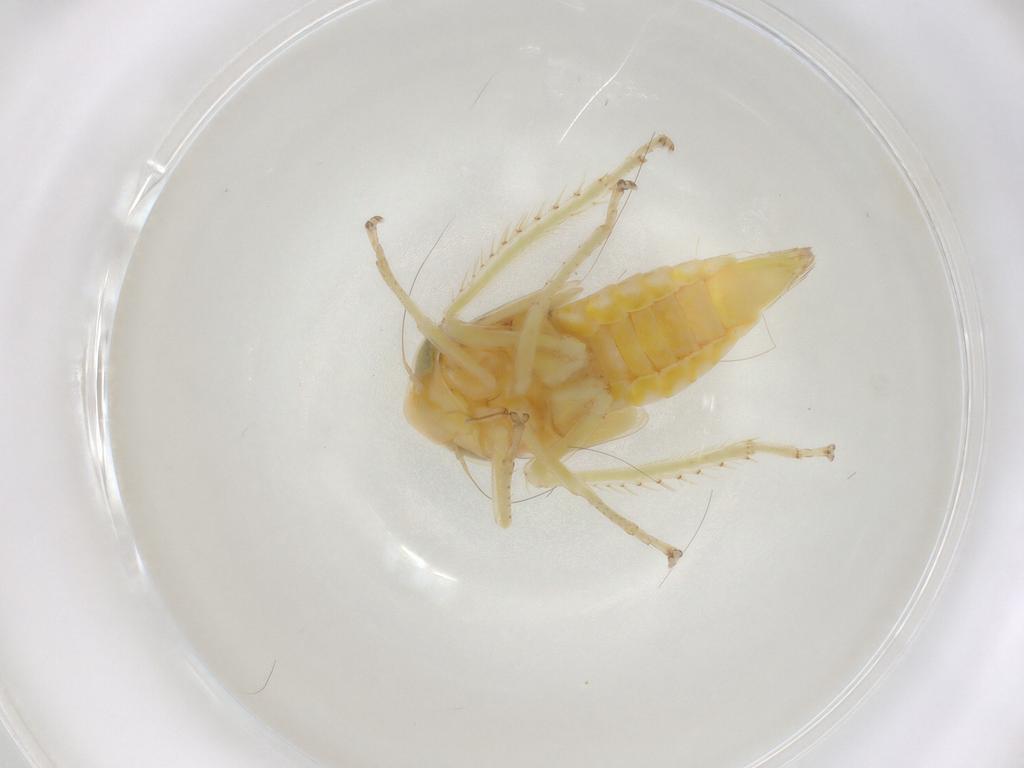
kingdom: Animalia
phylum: Arthropoda
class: Insecta
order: Hemiptera
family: Cicadellidae
